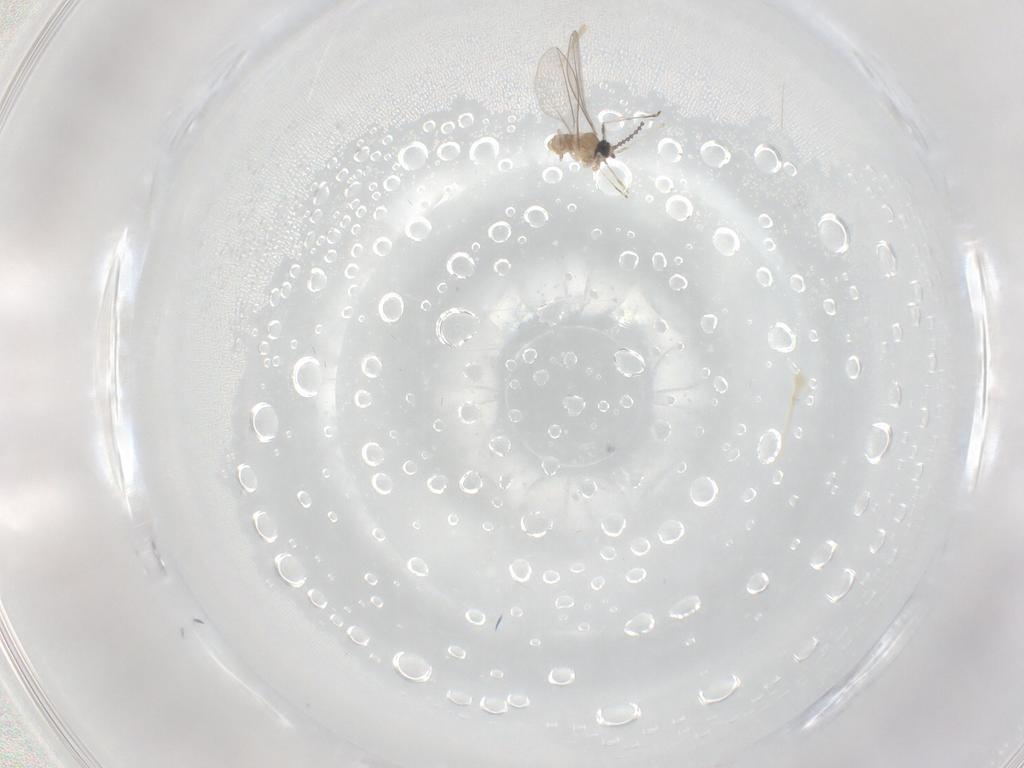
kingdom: Animalia
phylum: Arthropoda
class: Insecta
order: Diptera
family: Cecidomyiidae
